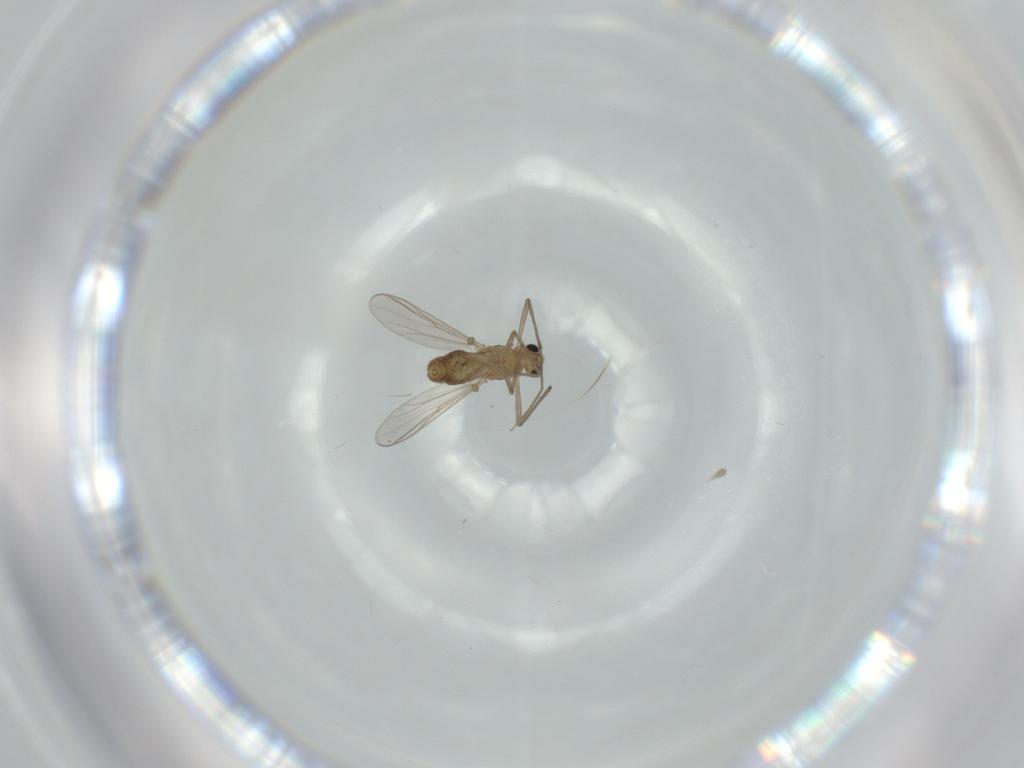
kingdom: Animalia
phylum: Arthropoda
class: Insecta
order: Diptera
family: Chironomidae
